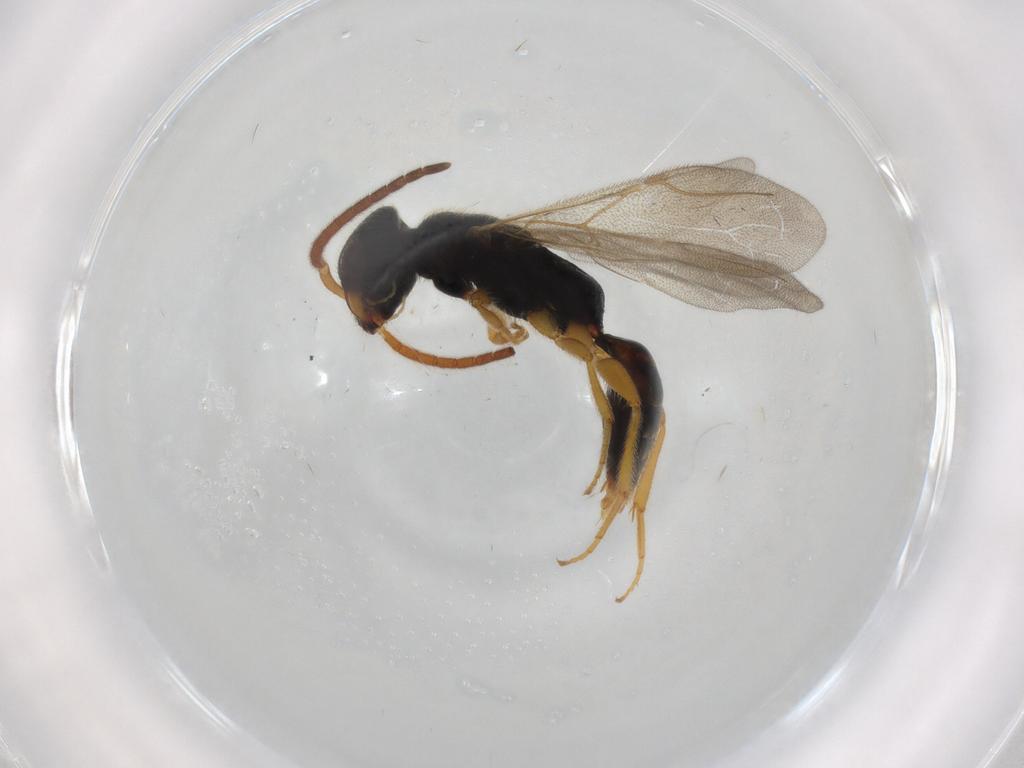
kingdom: Animalia
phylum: Arthropoda
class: Insecta
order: Hymenoptera
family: Bethylidae
